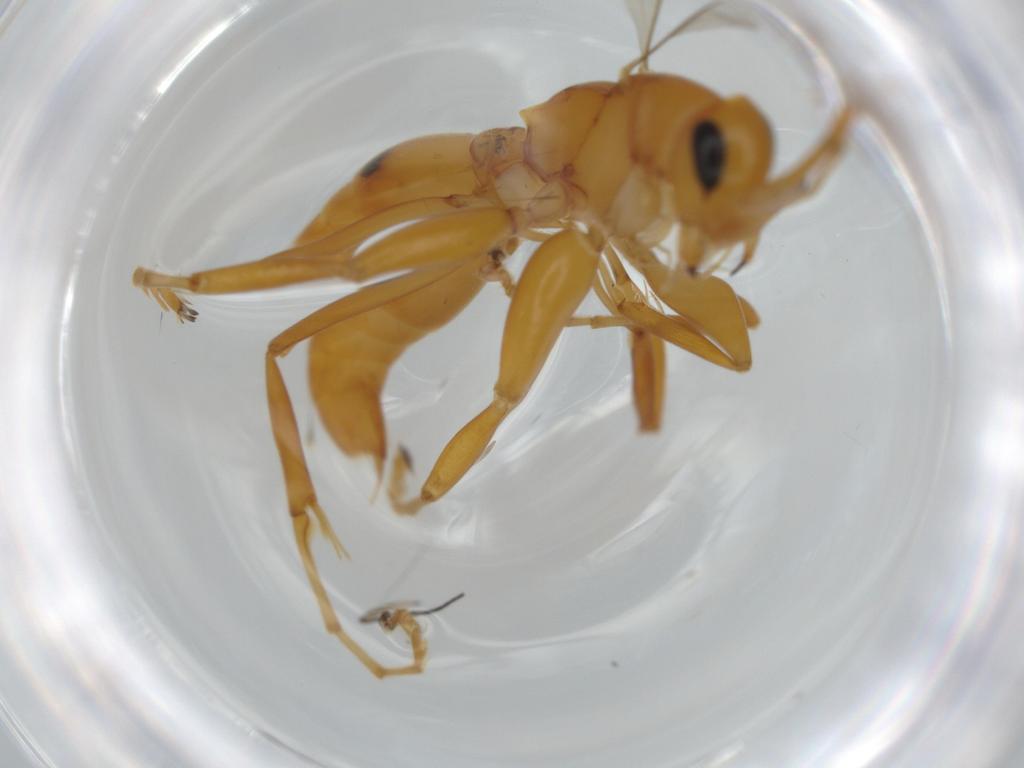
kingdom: Animalia
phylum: Arthropoda
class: Insecta
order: Hymenoptera
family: Rhopalosomatidae
